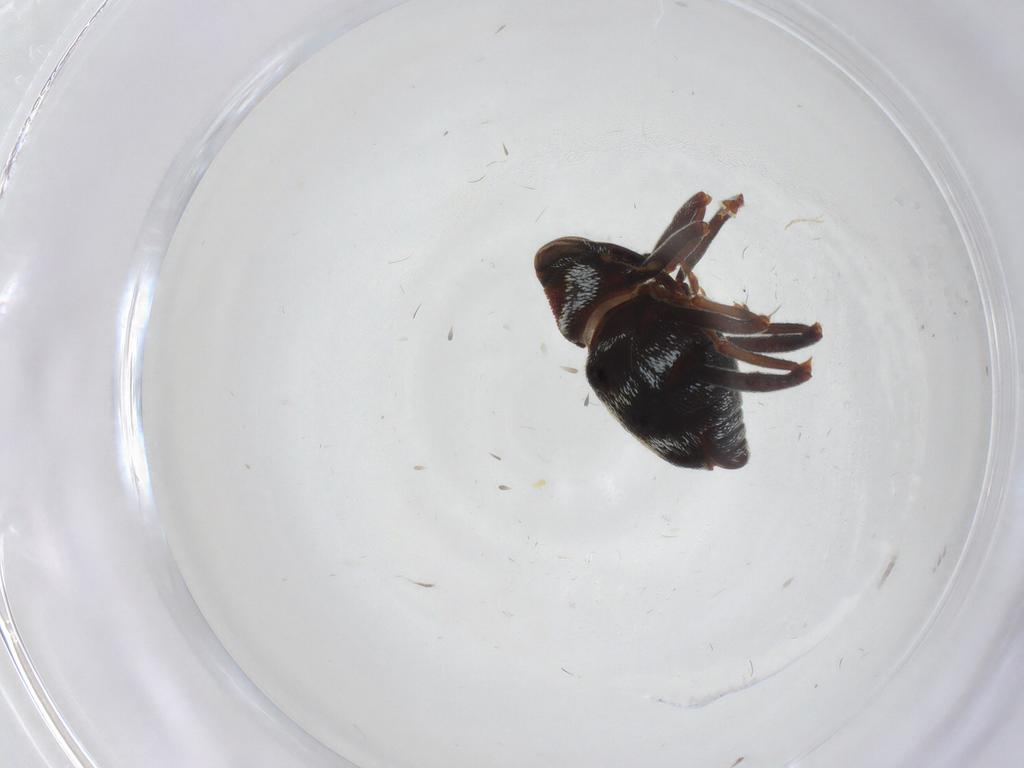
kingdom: Animalia
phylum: Arthropoda
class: Insecta
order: Coleoptera
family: Curculionidae
